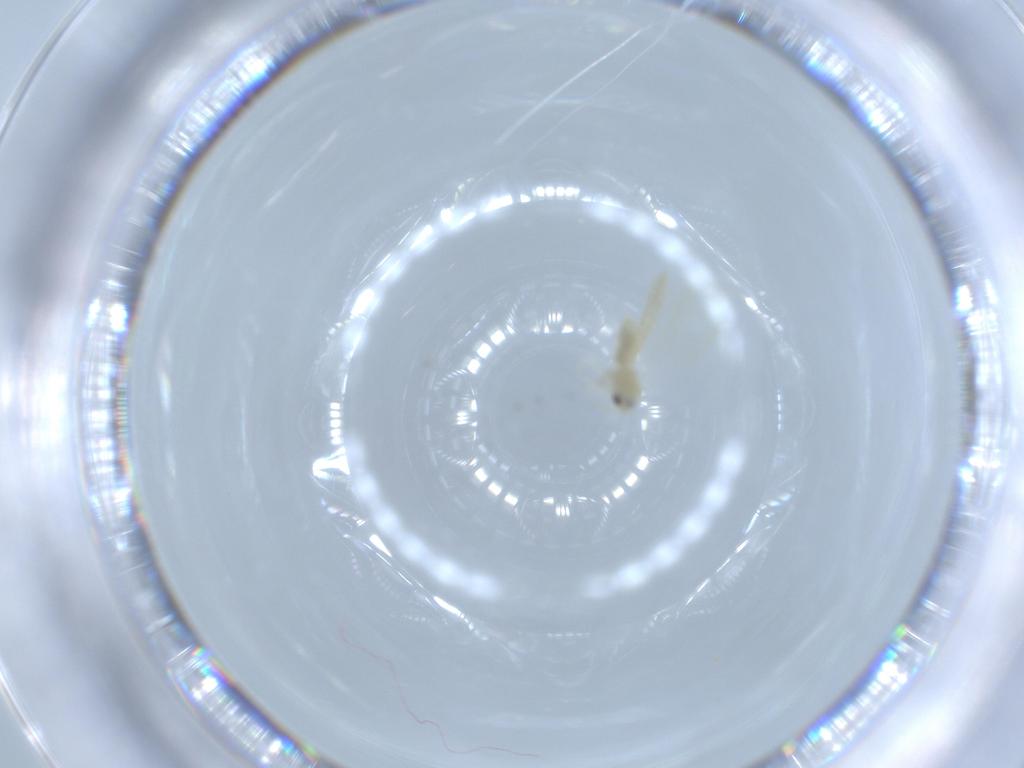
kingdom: Animalia
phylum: Arthropoda
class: Insecta
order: Hemiptera
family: Aleyrodidae
